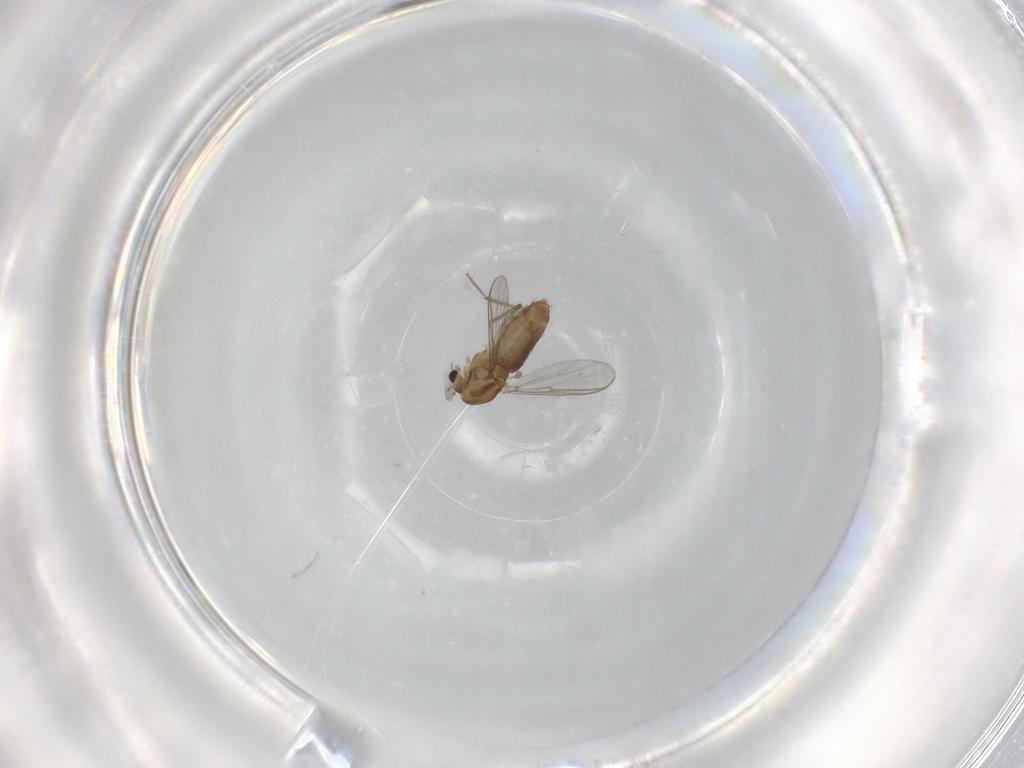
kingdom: Animalia
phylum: Arthropoda
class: Insecta
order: Diptera
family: Chironomidae
